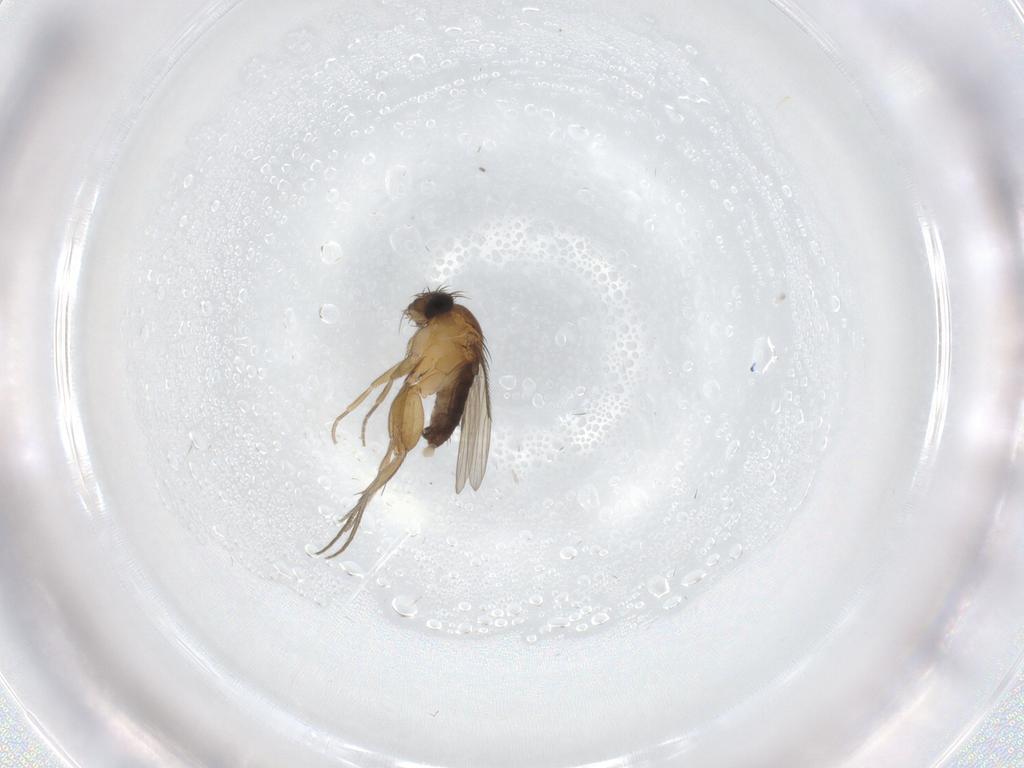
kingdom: Animalia
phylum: Arthropoda
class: Insecta
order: Diptera
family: Phoridae
